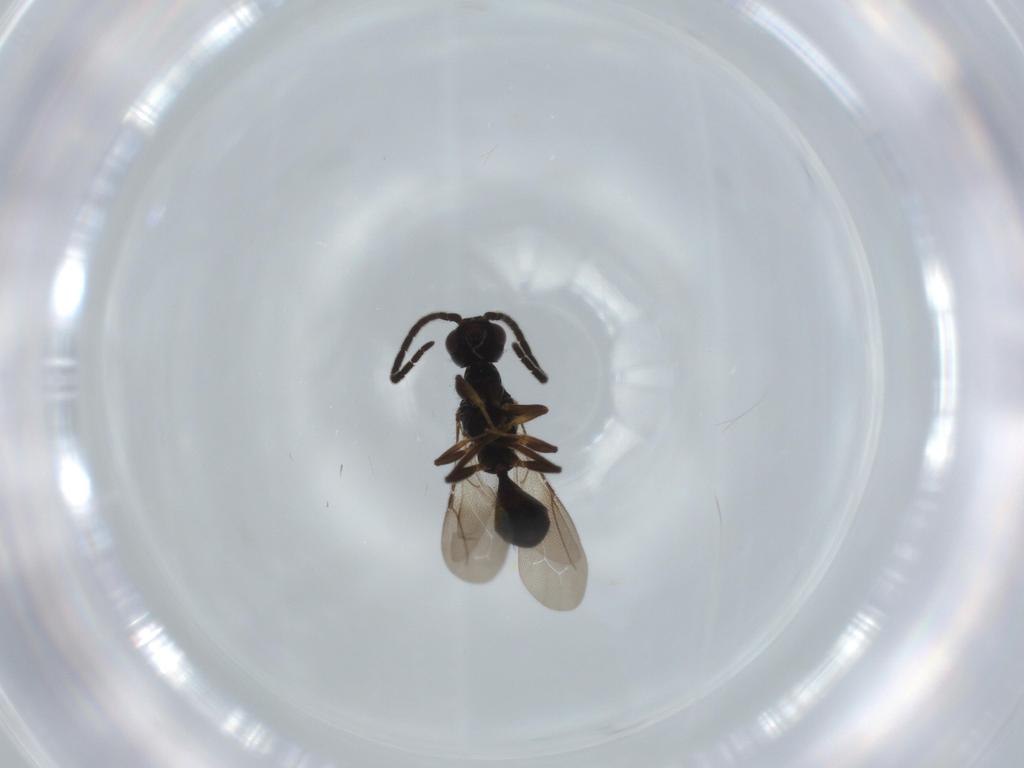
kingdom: Animalia
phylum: Arthropoda
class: Insecta
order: Hymenoptera
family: Bethylidae
